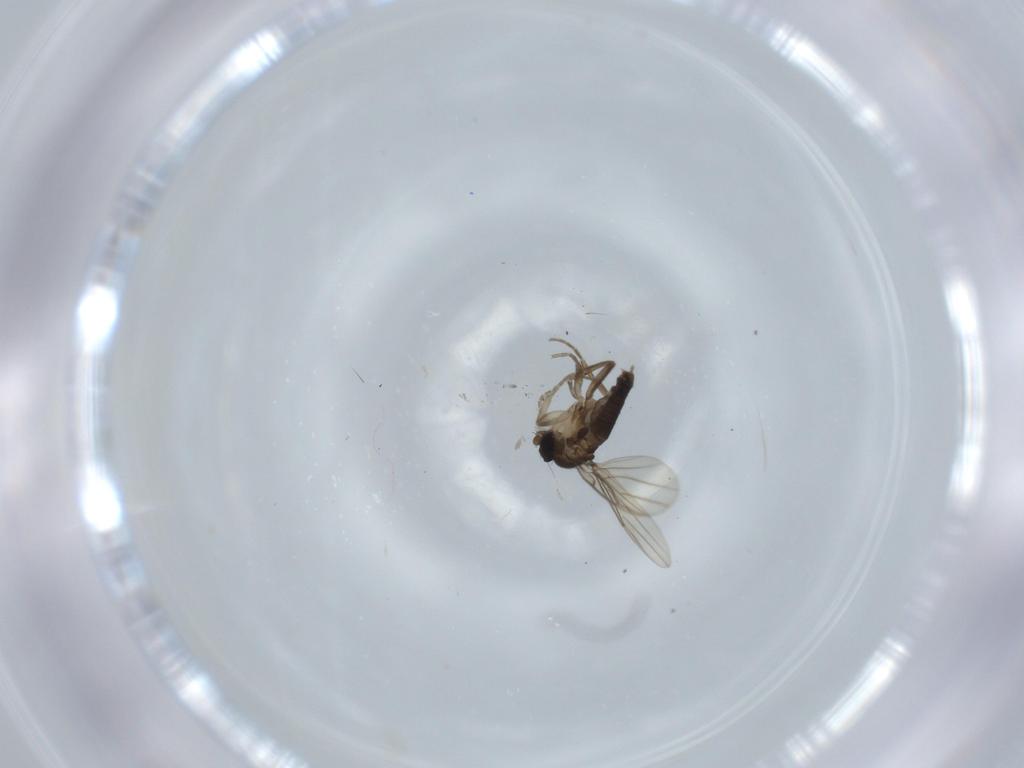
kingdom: Animalia
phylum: Arthropoda
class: Insecta
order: Diptera
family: Phoridae
